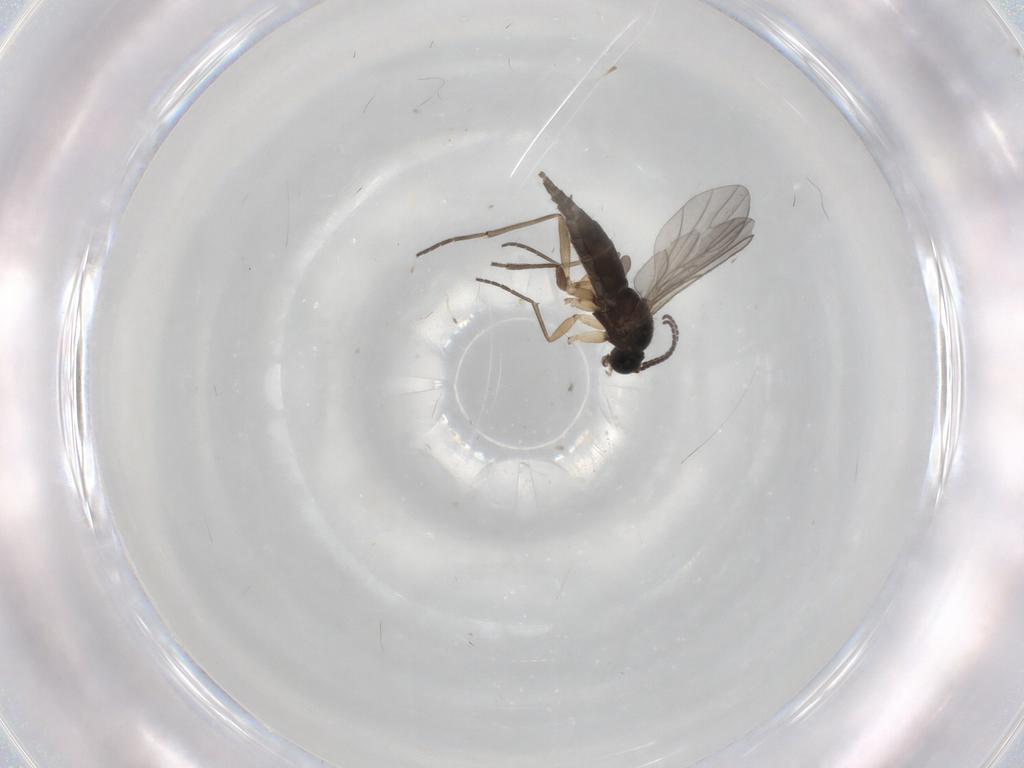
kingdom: Animalia
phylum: Arthropoda
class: Insecta
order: Diptera
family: Sciaridae
